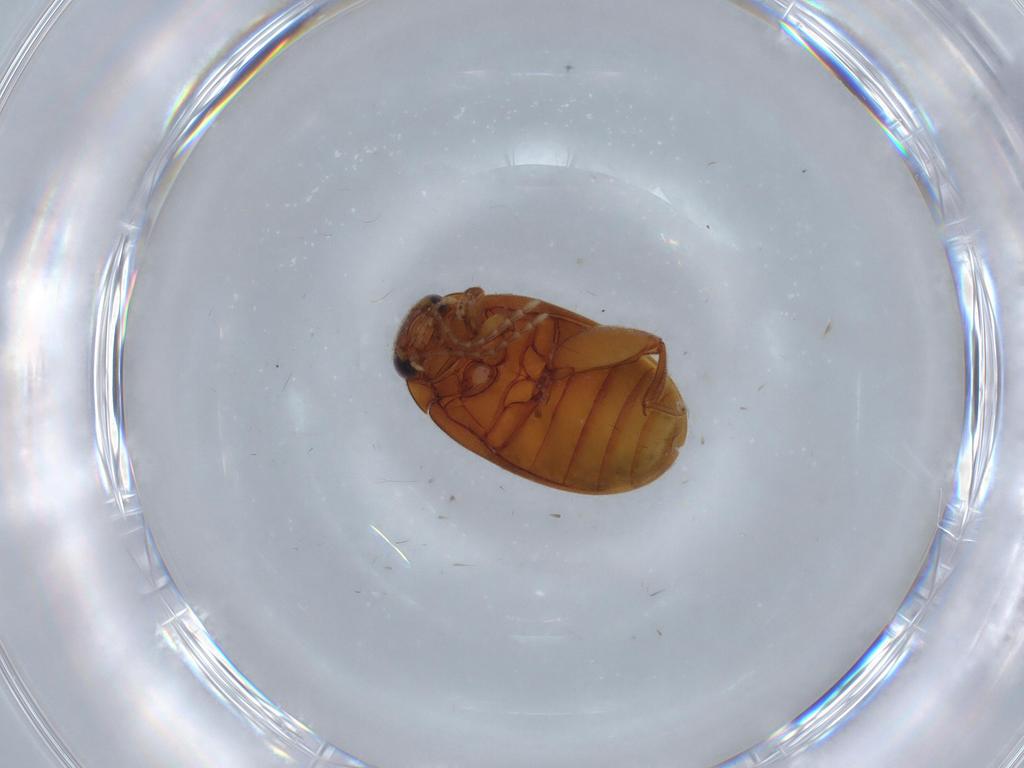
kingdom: Animalia
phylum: Arthropoda
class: Insecta
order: Coleoptera
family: Scirtidae
